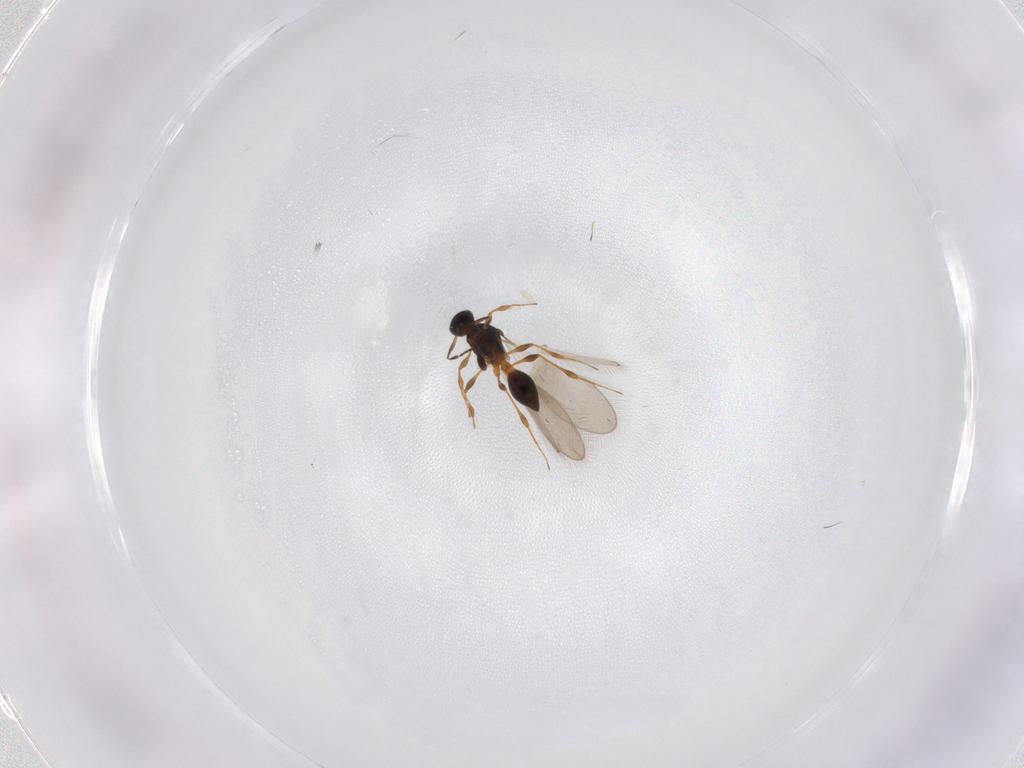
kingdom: Animalia
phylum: Arthropoda
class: Insecta
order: Hymenoptera
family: Platygastridae
